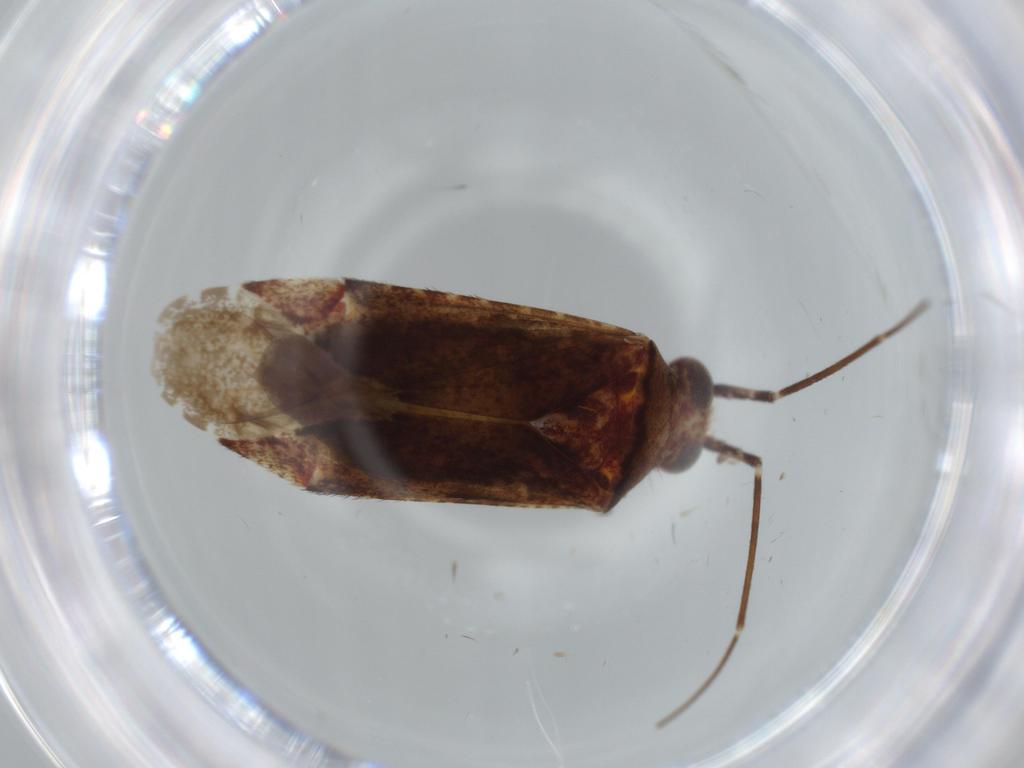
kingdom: Animalia
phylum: Arthropoda
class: Insecta
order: Hemiptera
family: Miridae
